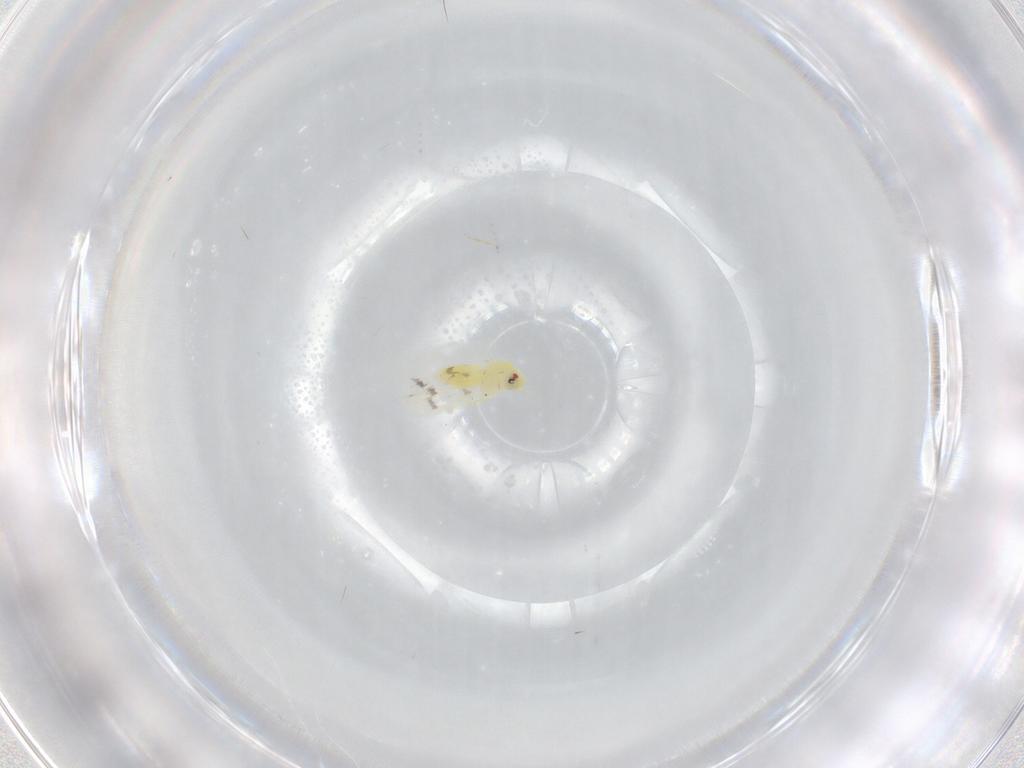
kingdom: Animalia
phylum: Arthropoda
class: Insecta
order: Hemiptera
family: Aleyrodidae
